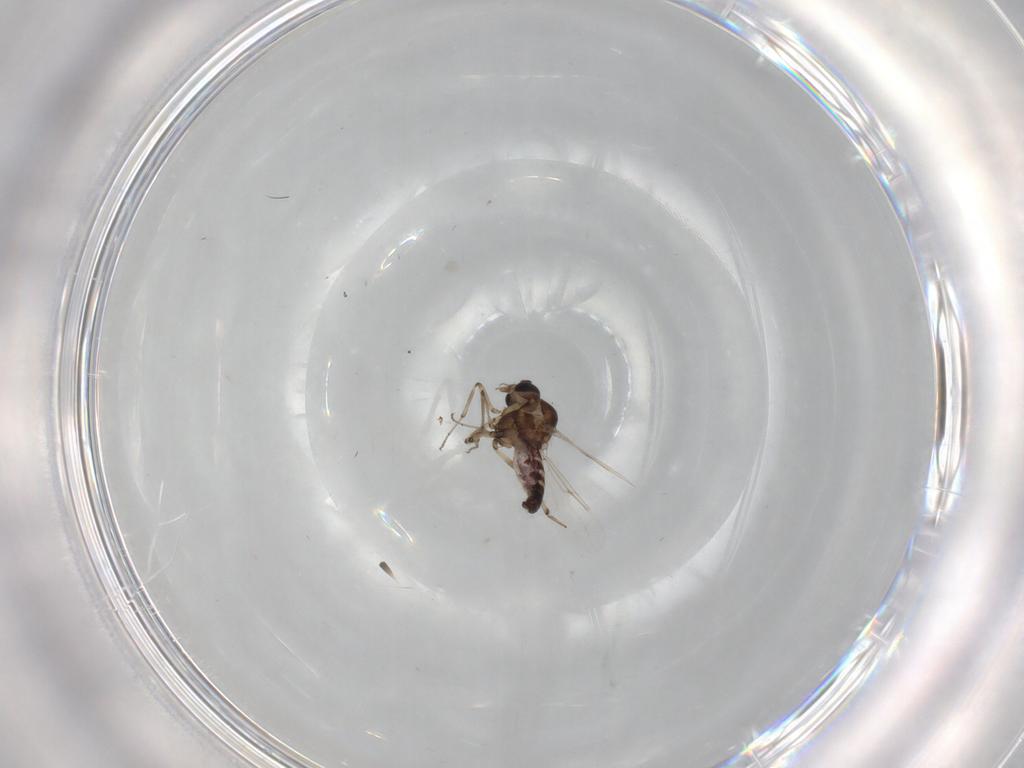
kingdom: Animalia
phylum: Arthropoda
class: Insecta
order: Diptera
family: Ceratopogonidae
